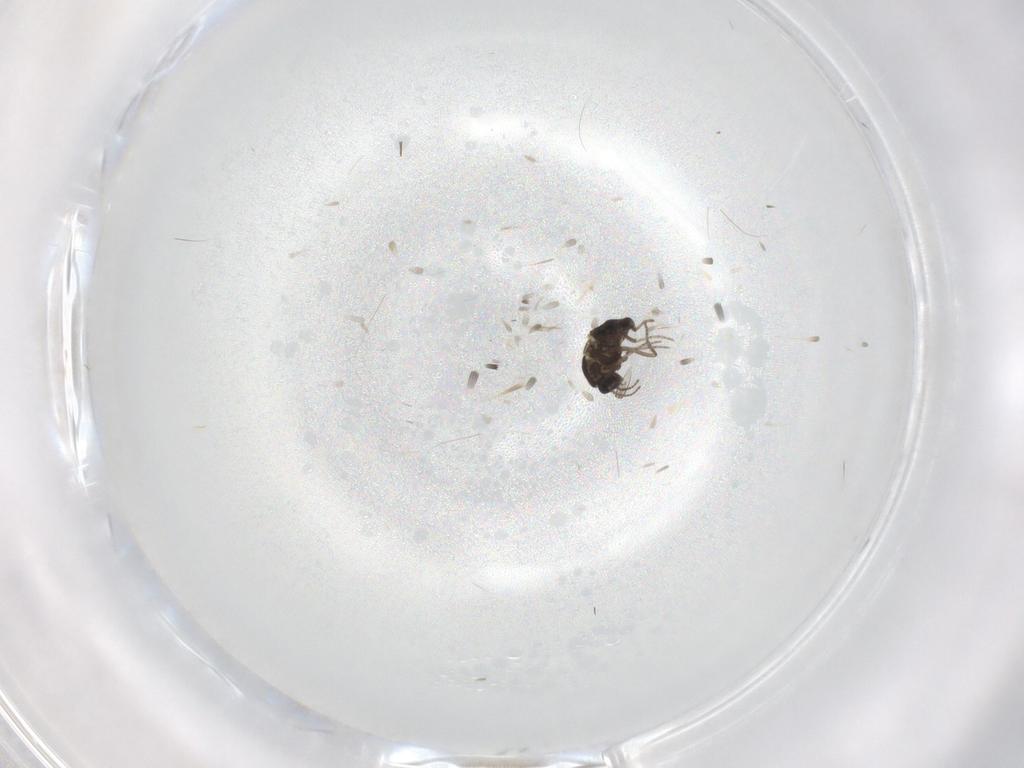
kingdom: Animalia
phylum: Arthropoda
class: Insecta
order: Diptera
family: Ceratopogonidae
